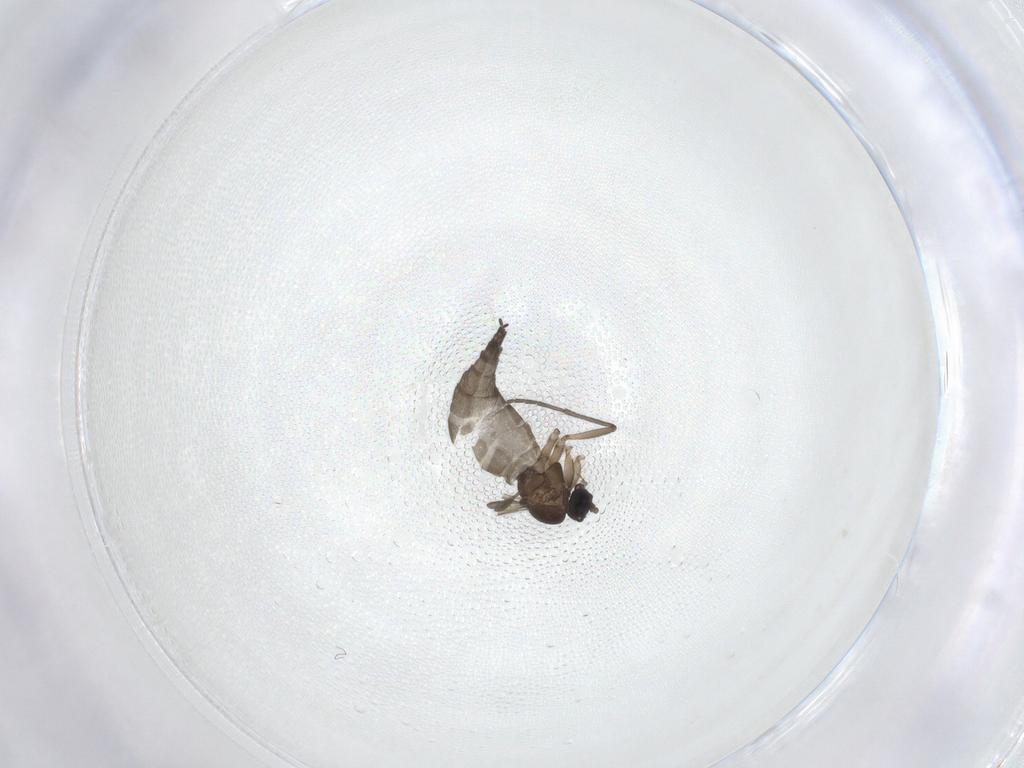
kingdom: Animalia
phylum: Arthropoda
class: Insecta
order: Diptera
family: Sciaridae
